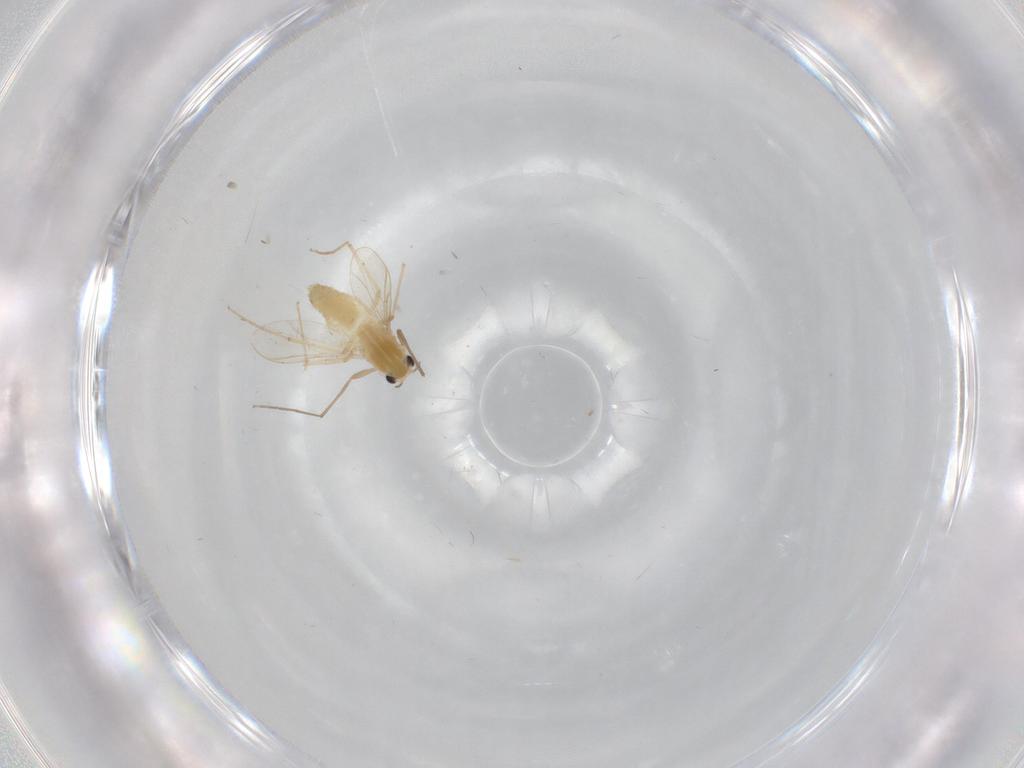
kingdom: Animalia
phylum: Arthropoda
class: Insecta
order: Diptera
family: Chironomidae
